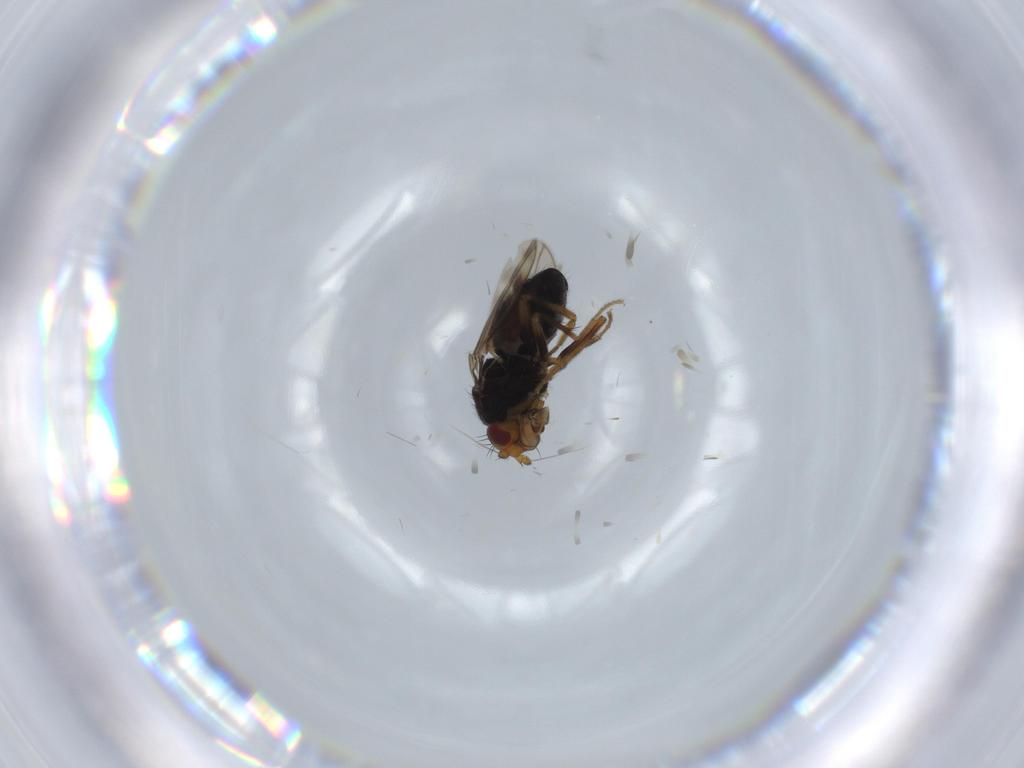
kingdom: Animalia
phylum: Arthropoda
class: Insecta
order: Diptera
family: Sphaeroceridae
